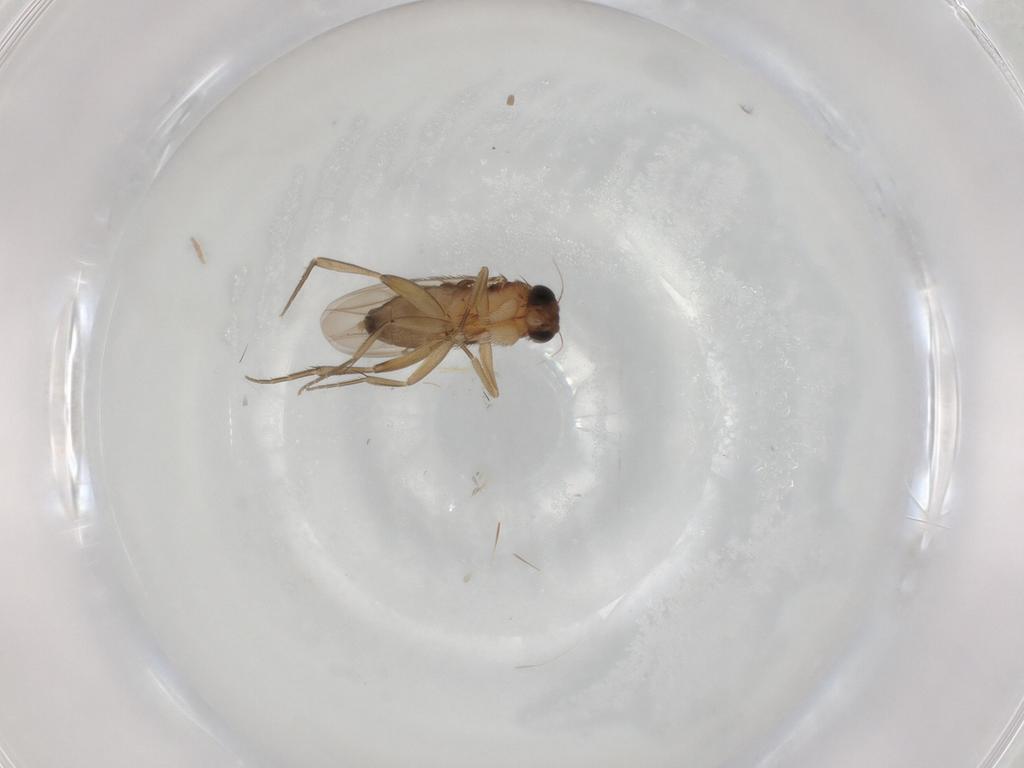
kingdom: Animalia
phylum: Arthropoda
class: Insecta
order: Diptera
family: Phoridae
